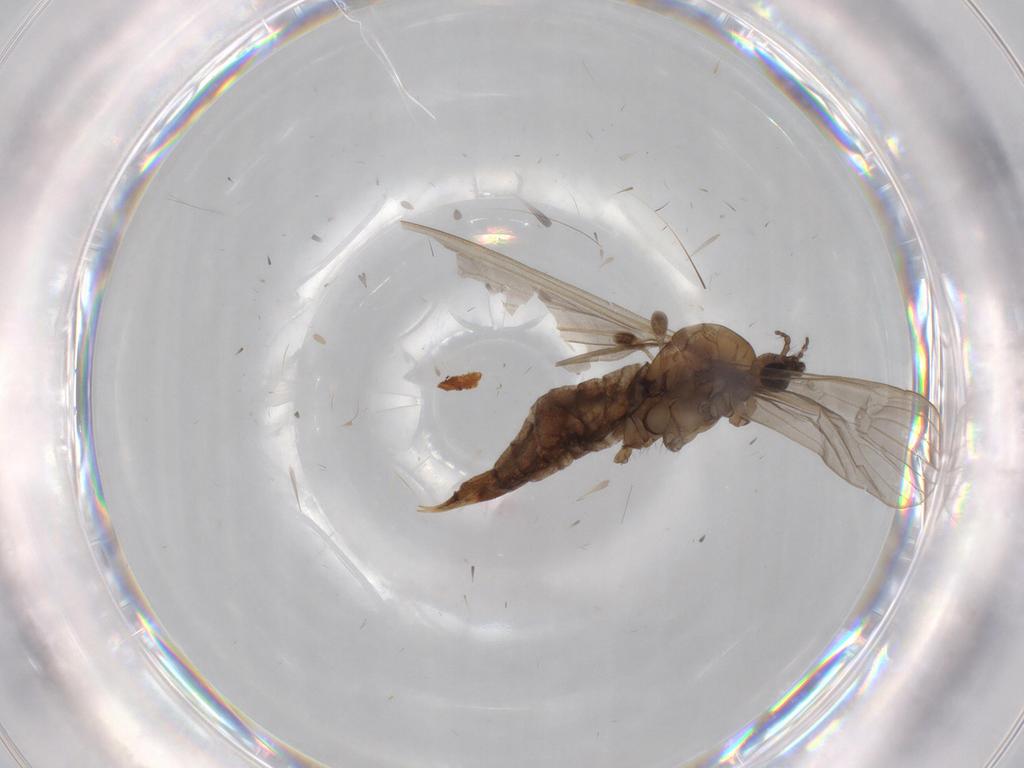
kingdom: Animalia
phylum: Arthropoda
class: Insecta
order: Diptera
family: Limoniidae
